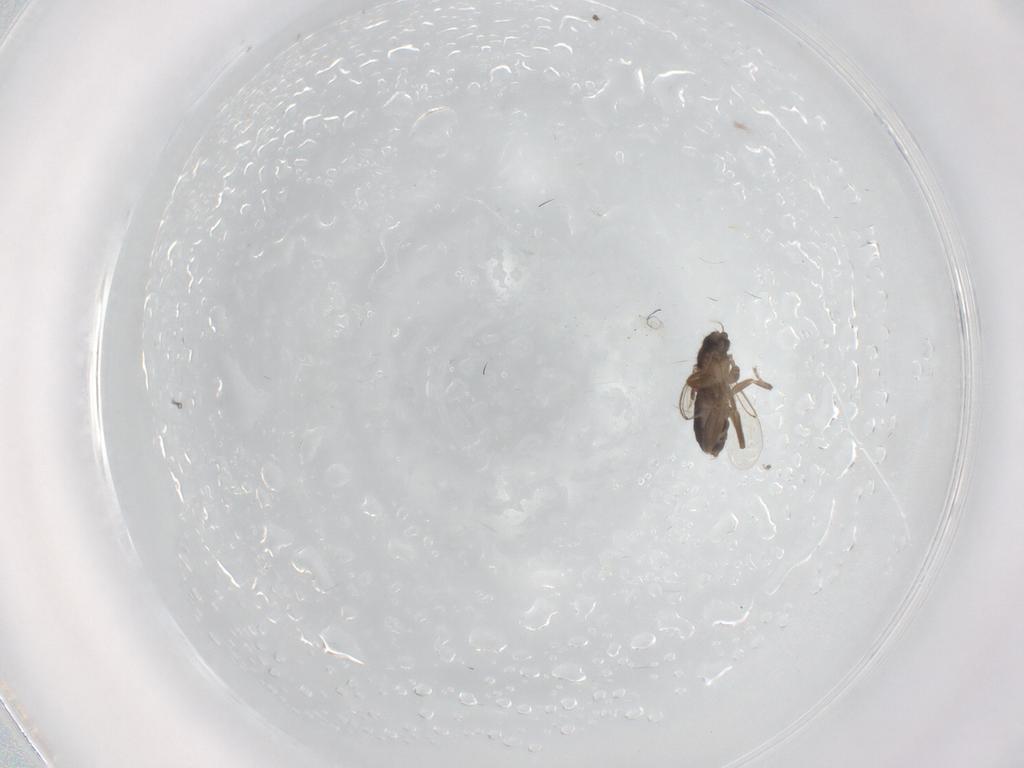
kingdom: Animalia
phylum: Arthropoda
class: Insecta
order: Diptera
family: Phoridae
